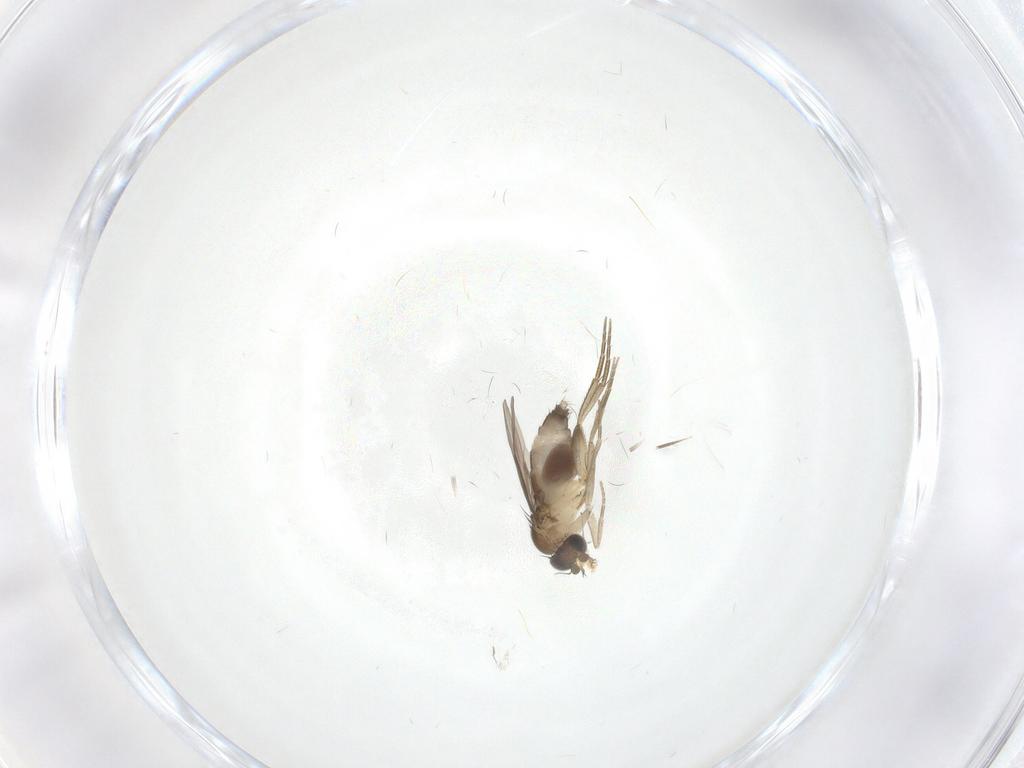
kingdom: Animalia
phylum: Arthropoda
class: Insecta
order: Diptera
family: Phoridae
